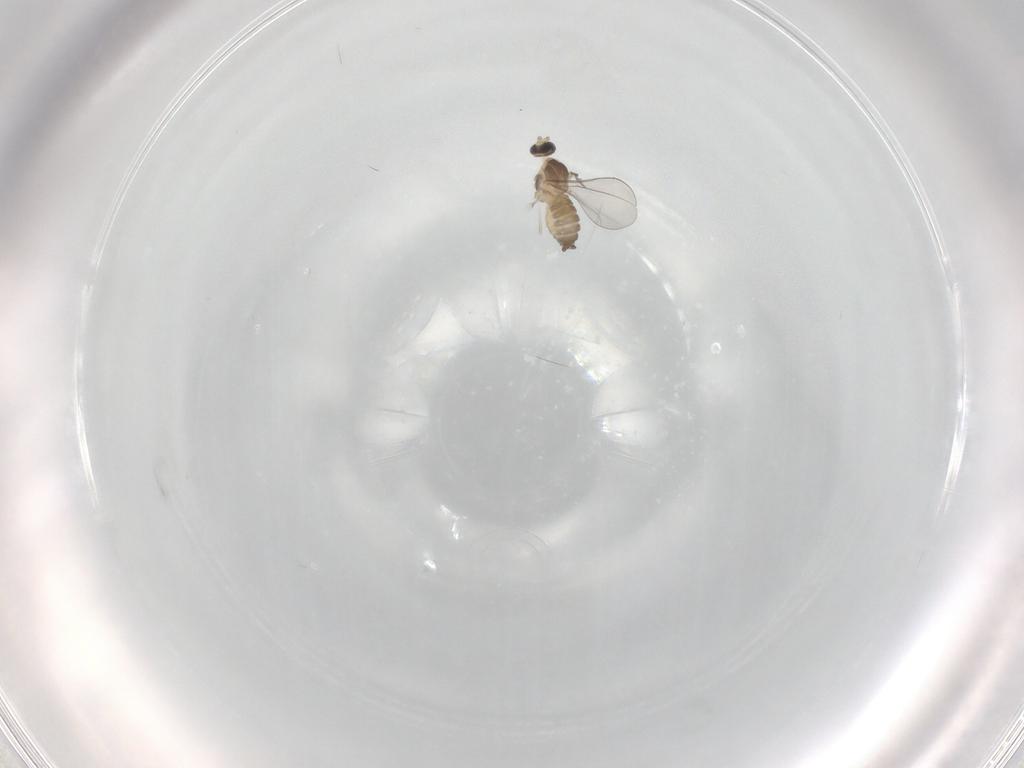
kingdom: Animalia
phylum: Arthropoda
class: Insecta
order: Diptera
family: Cecidomyiidae
